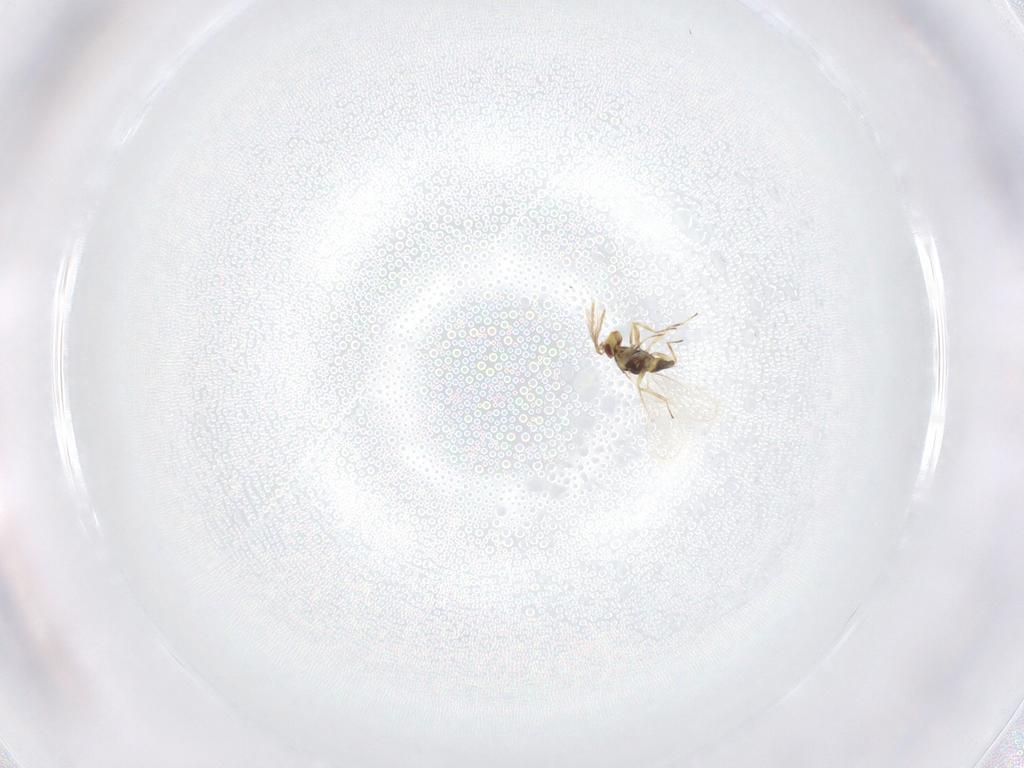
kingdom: Animalia
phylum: Arthropoda
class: Insecta
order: Hymenoptera
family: Eulophidae
